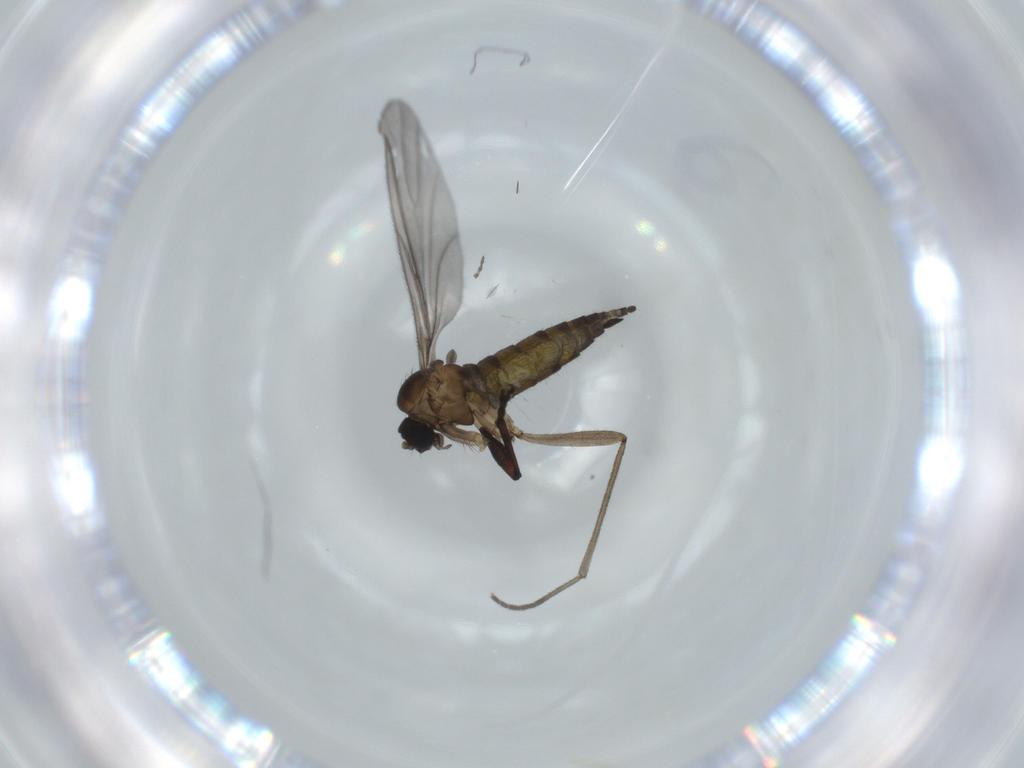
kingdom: Animalia
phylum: Arthropoda
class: Insecta
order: Diptera
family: Sciaridae
